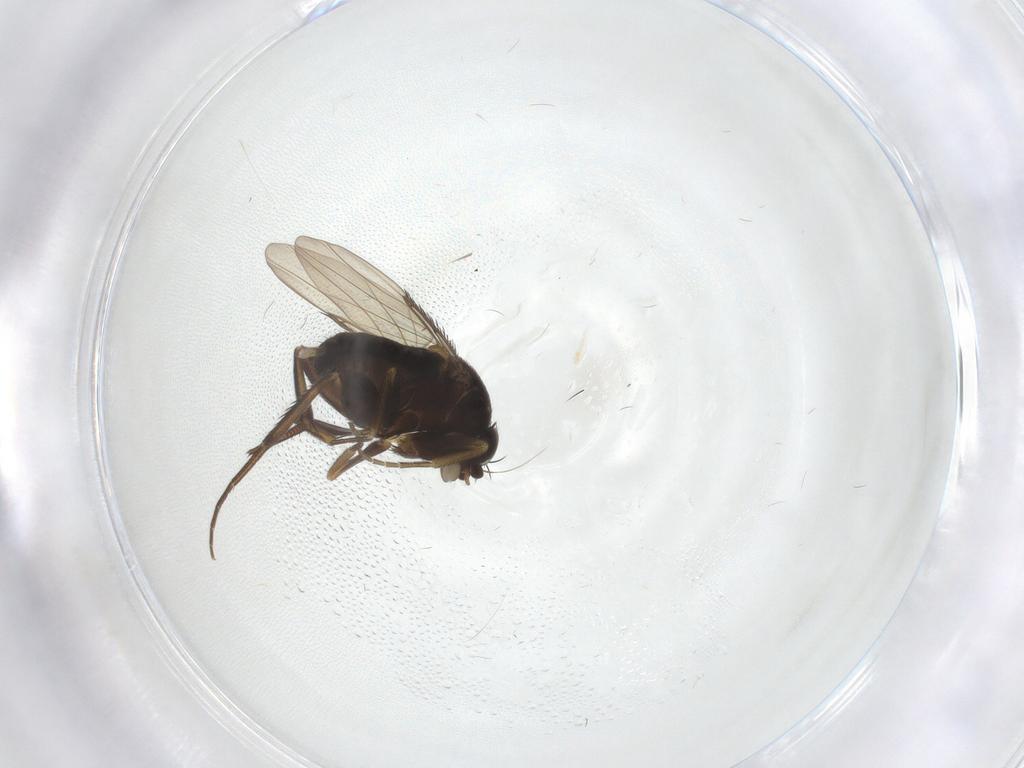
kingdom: Animalia
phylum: Arthropoda
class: Insecta
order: Diptera
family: Phoridae
